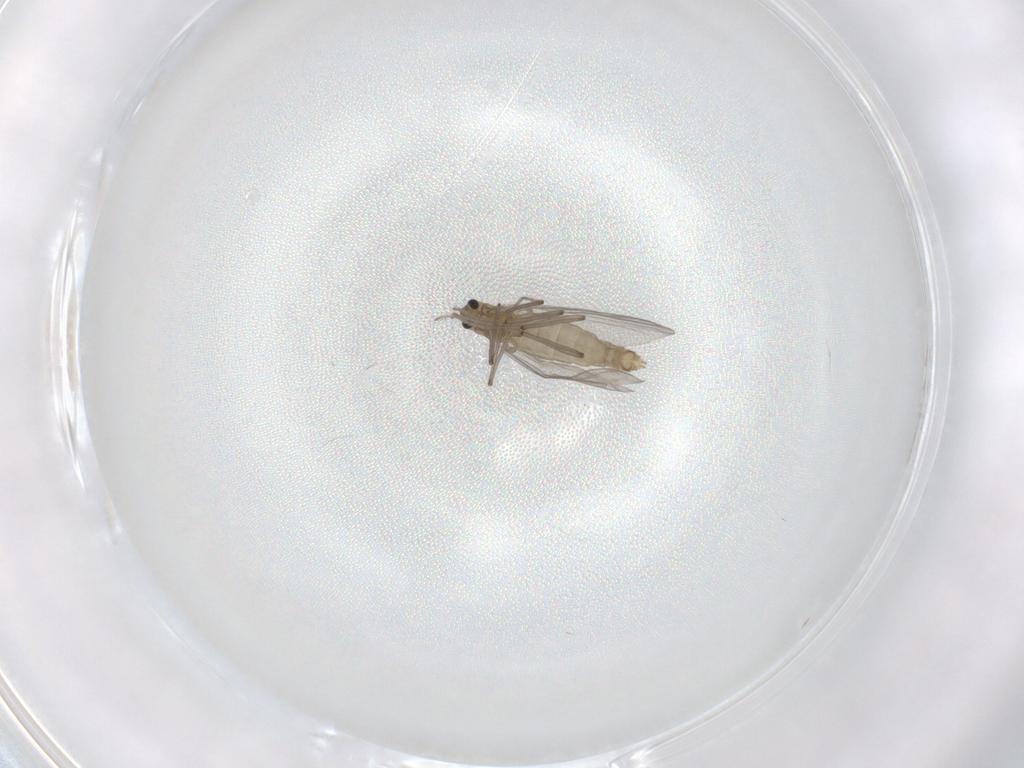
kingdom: Animalia
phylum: Arthropoda
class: Insecta
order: Diptera
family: Chironomidae
